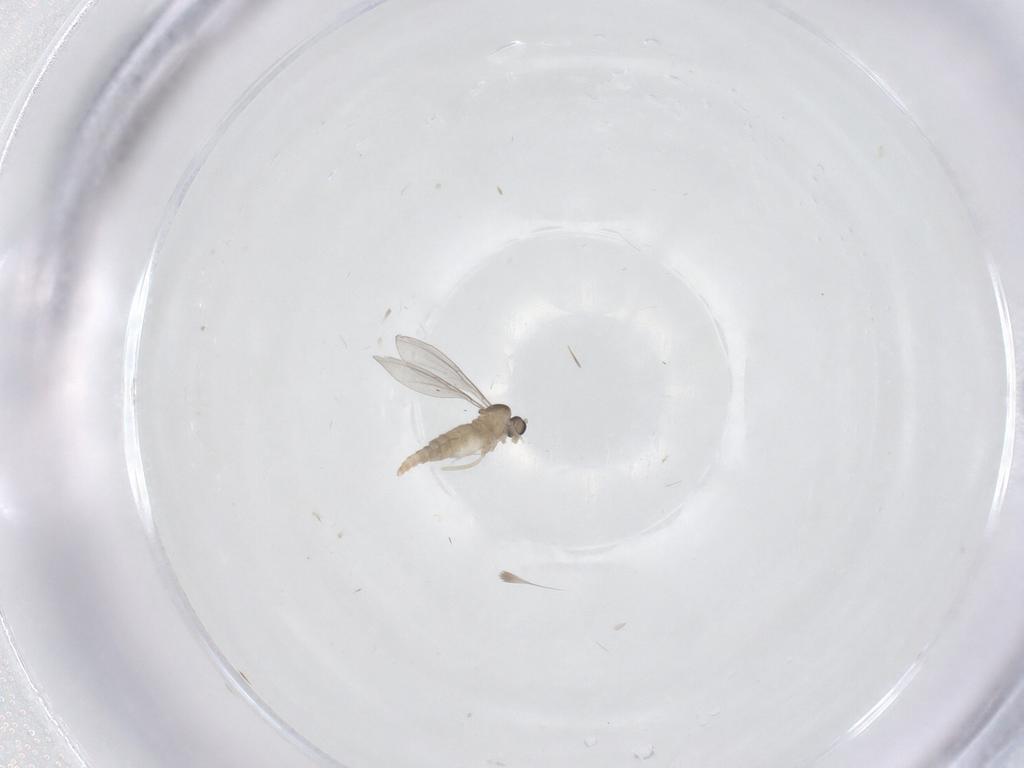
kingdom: Animalia
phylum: Arthropoda
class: Insecta
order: Diptera
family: Cecidomyiidae
